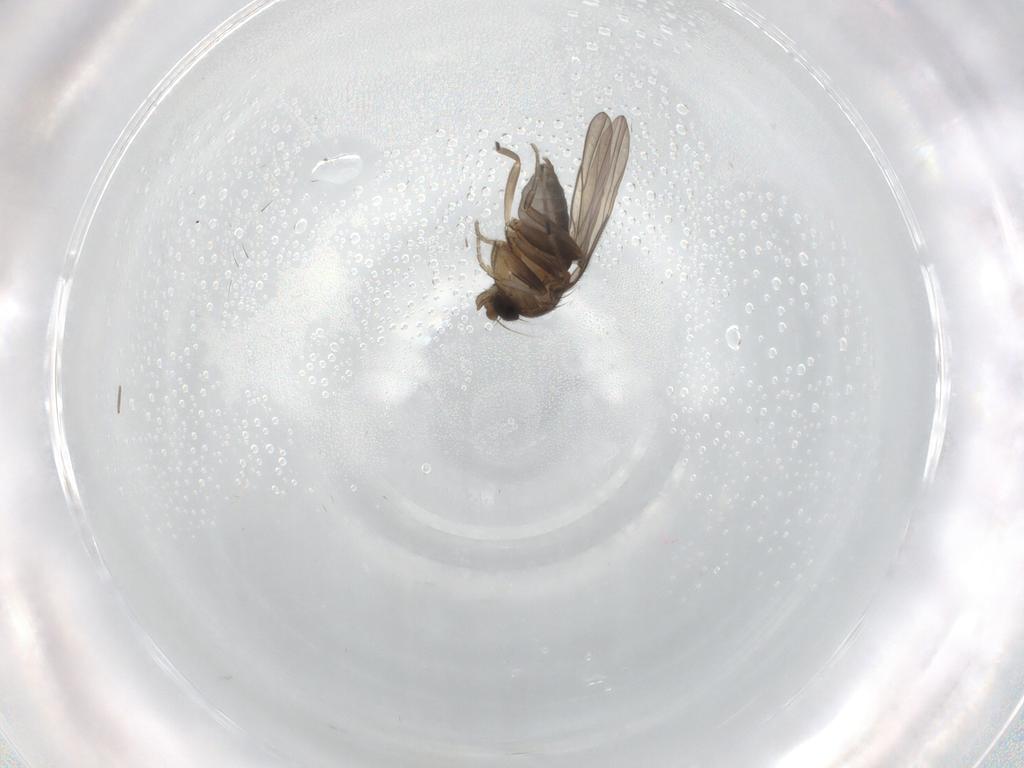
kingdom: Animalia
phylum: Arthropoda
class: Insecta
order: Diptera
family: Phoridae
